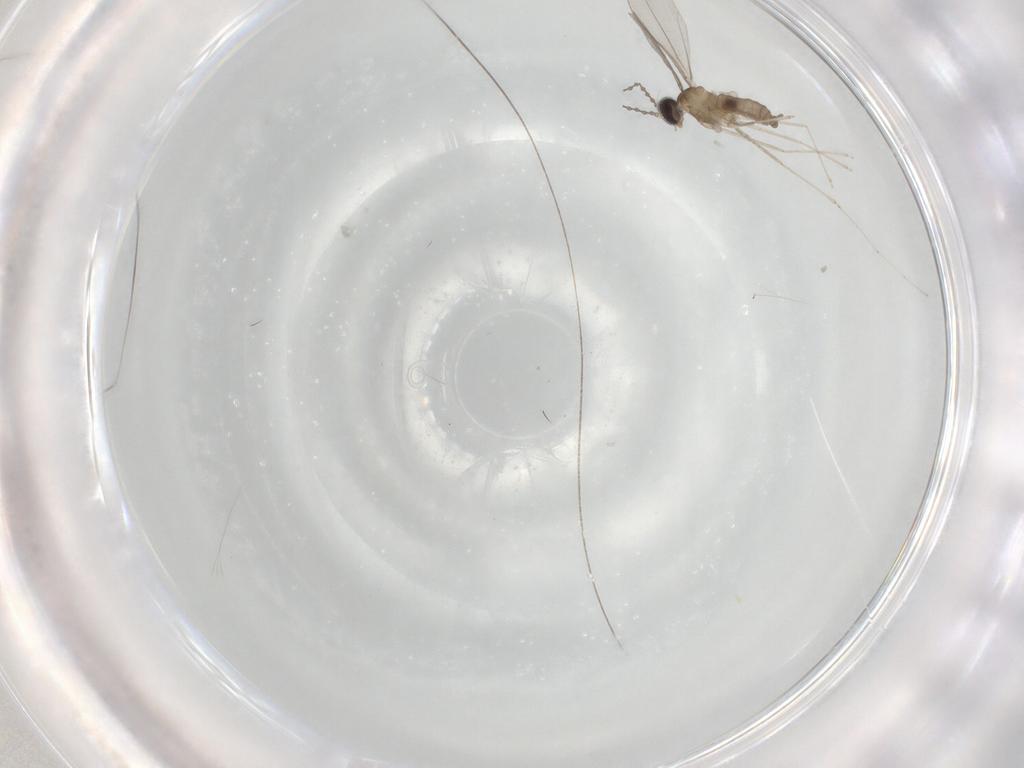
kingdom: Animalia
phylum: Arthropoda
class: Insecta
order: Diptera
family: Cecidomyiidae
